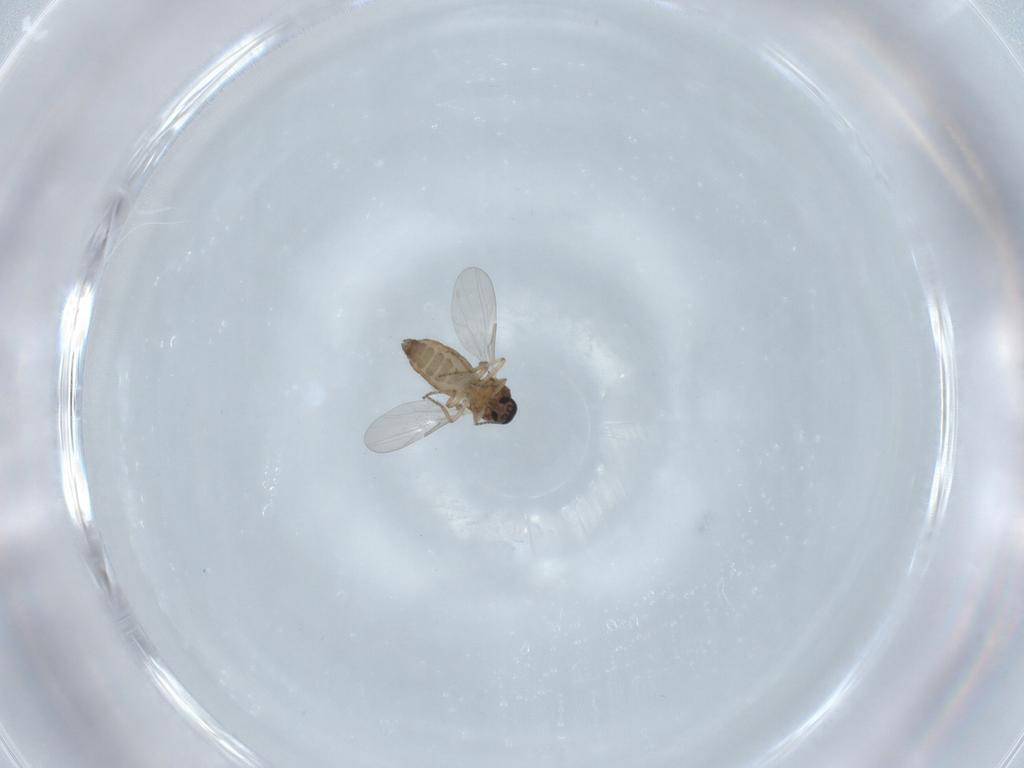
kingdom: Animalia
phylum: Arthropoda
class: Insecta
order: Diptera
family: Ceratopogonidae
